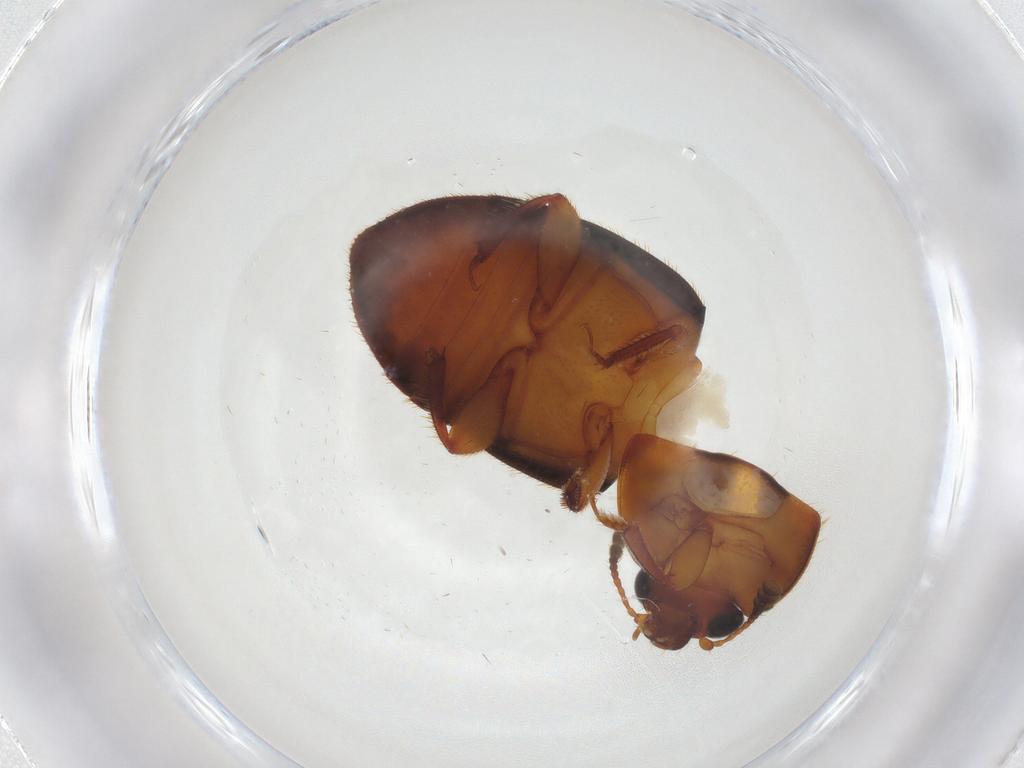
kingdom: Animalia
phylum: Arthropoda
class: Insecta
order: Coleoptera
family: Nitidulidae
